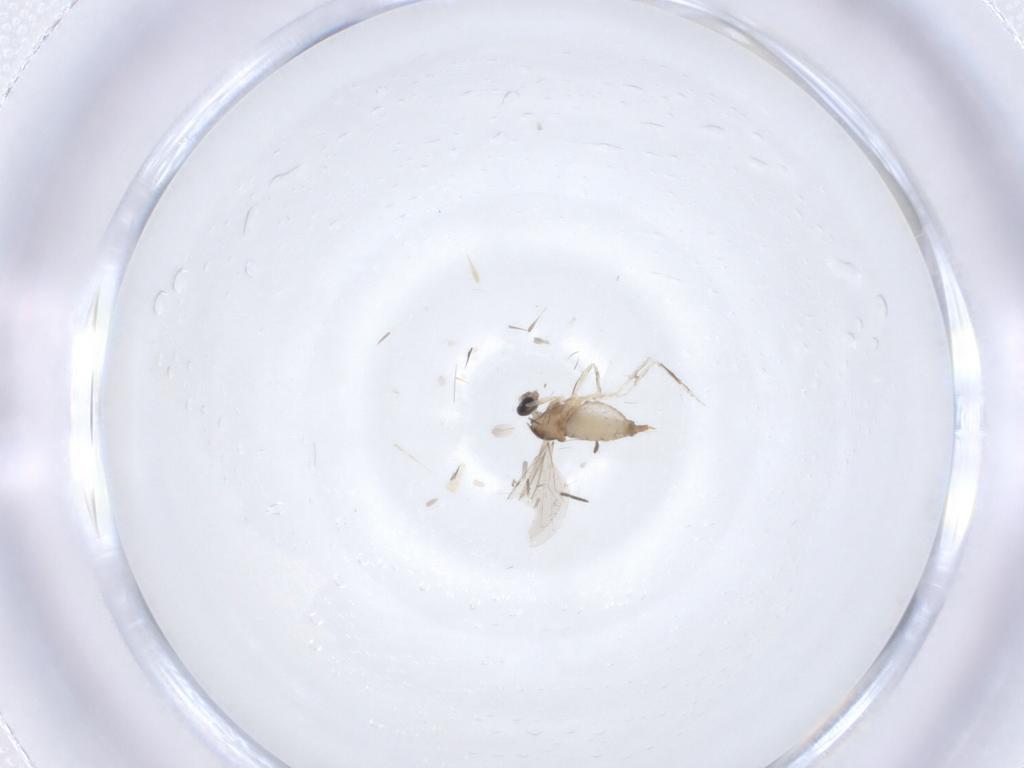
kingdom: Animalia
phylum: Arthropoda
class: Insecta
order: Diptera
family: Cecidomyiidae
